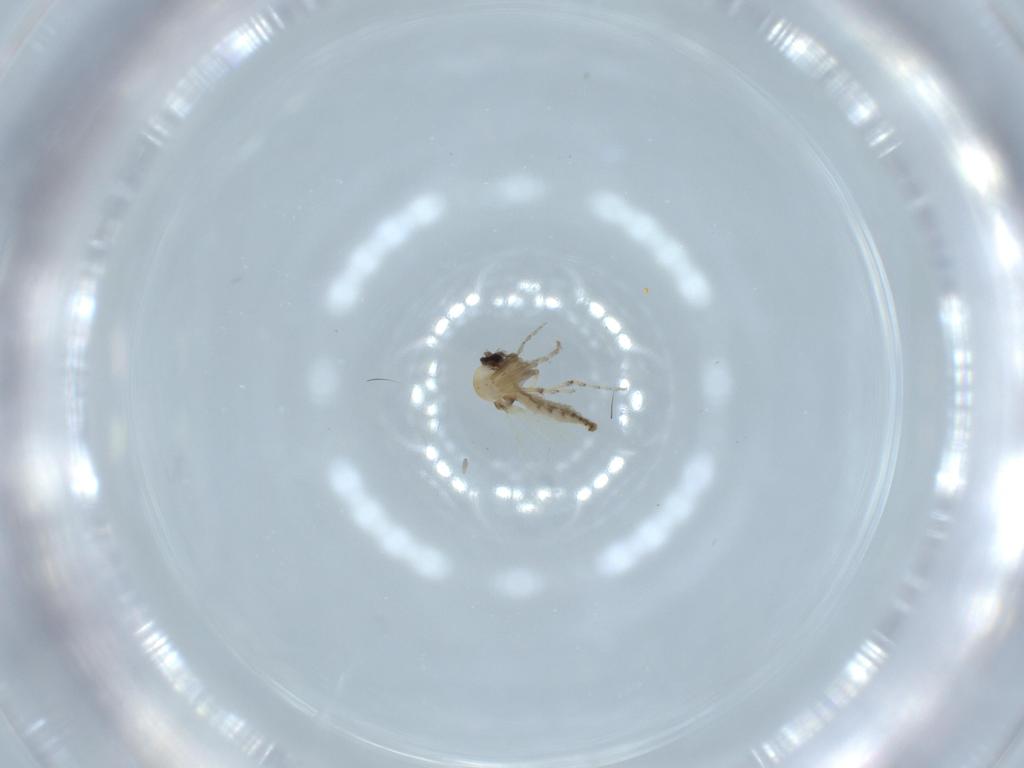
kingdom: Animalia
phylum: Arthropoda
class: Insecta
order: Diptera
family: Ceratopogonidae
